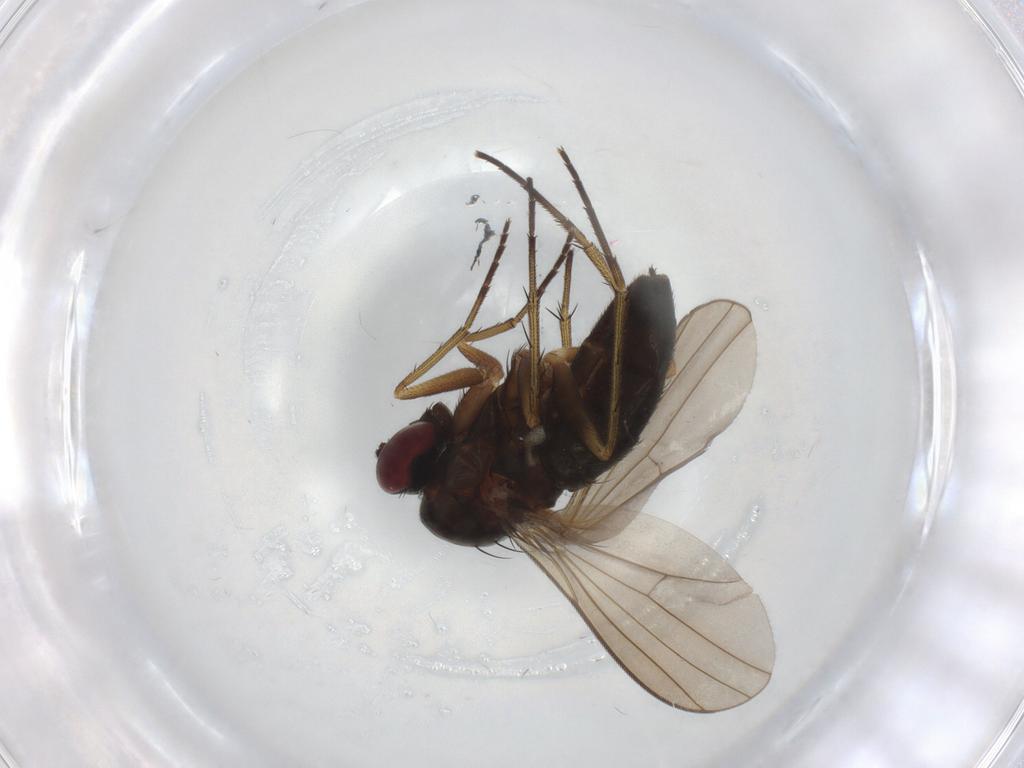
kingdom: Animalia
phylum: Arthropoda
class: Insecta
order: Diptera
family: Dolichopodidae
